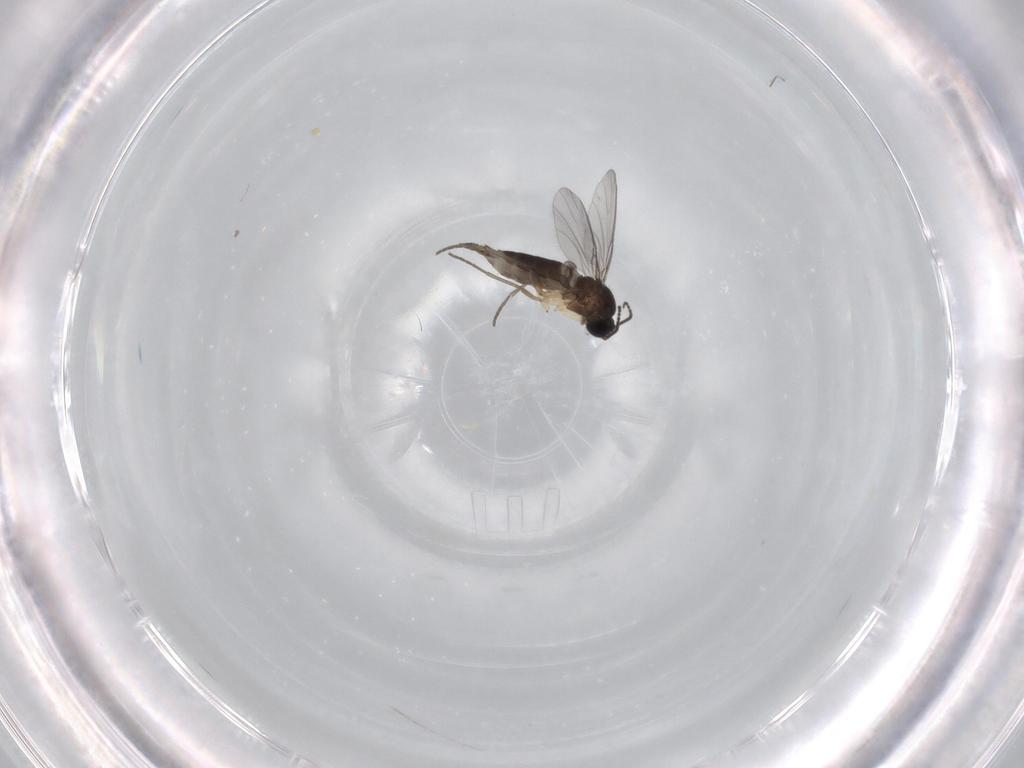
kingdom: Animalia
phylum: Arthropoda
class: Insecta
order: Diptera
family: Sciaridae
